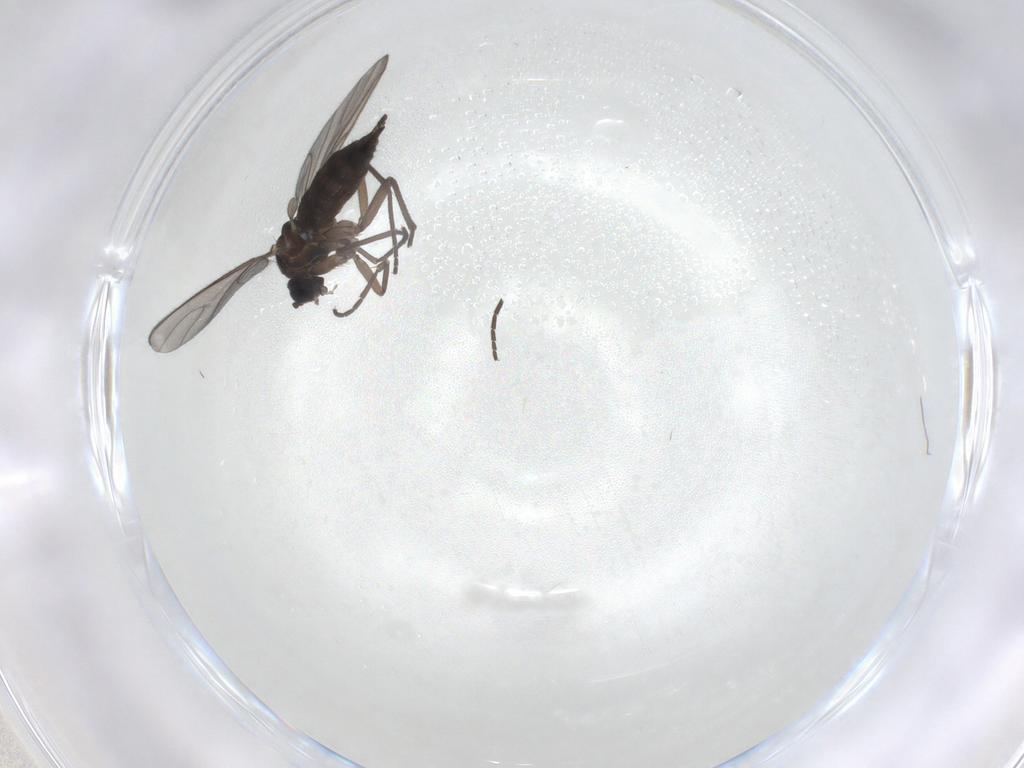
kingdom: Animalia
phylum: Arthropoda
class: Insecta
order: Diptera
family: Sciaridae
